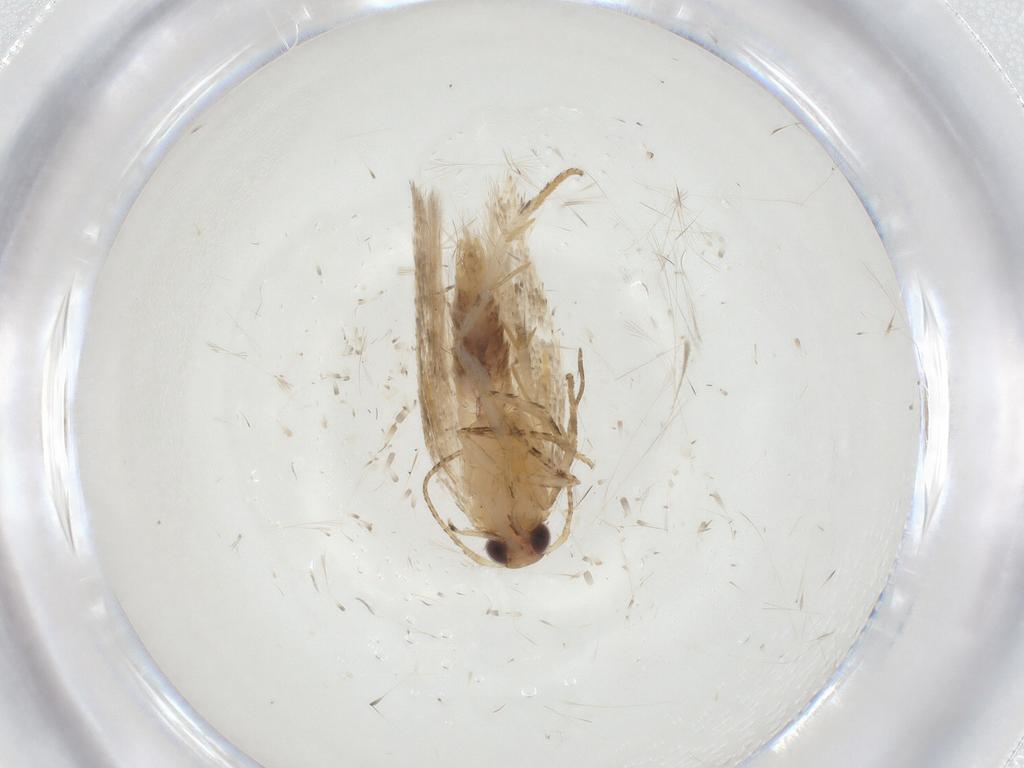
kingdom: Animalia
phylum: Arthropoda
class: Insecta
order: Lepidoptera
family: Gelechiidae
